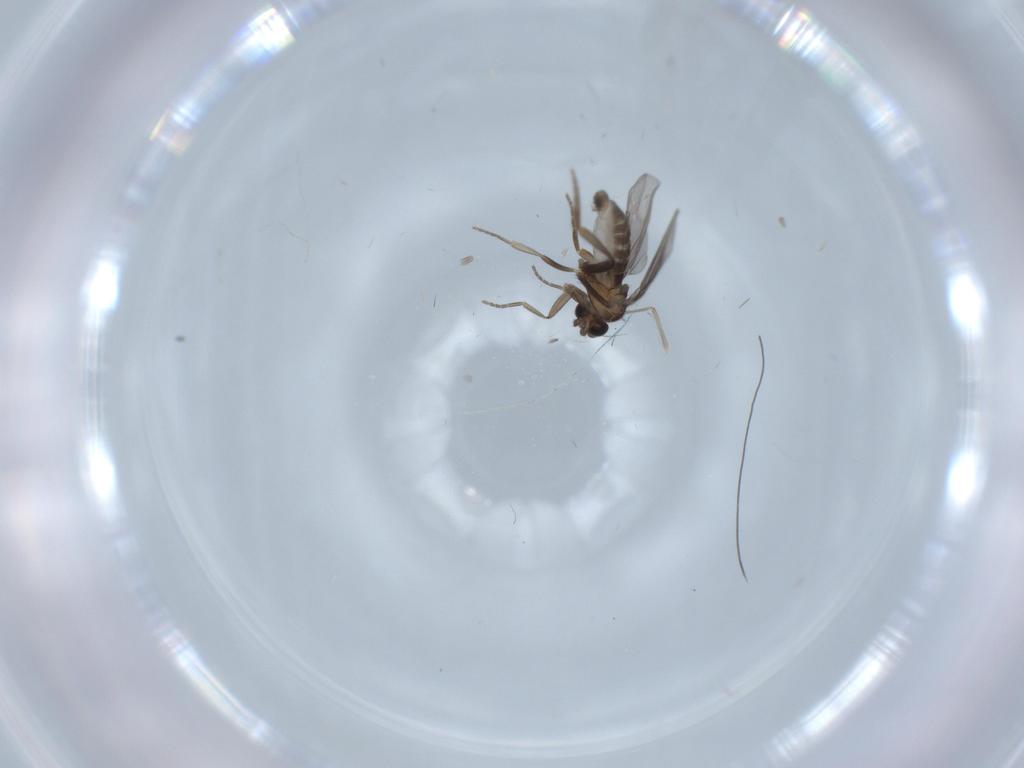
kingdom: Animalia
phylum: Arthropoda
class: Insecta
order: Diptera
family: Chironomidae
